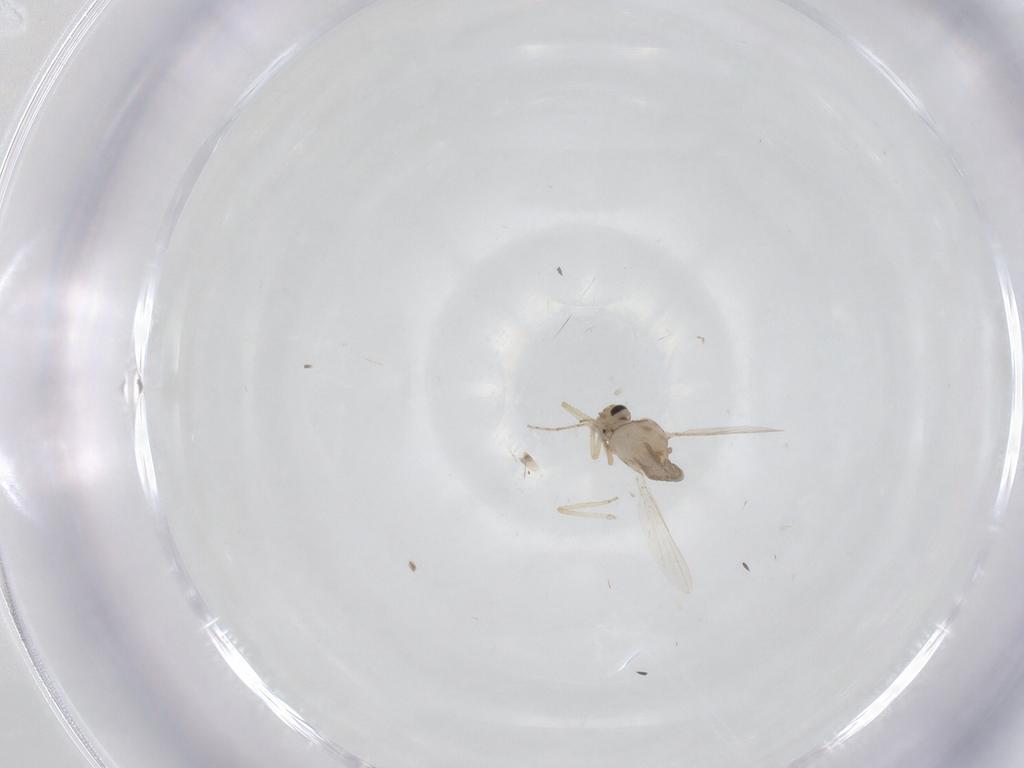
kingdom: Animalia
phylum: Arthropoda
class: Insecta
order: Diptera
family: Ceratopogonidae
